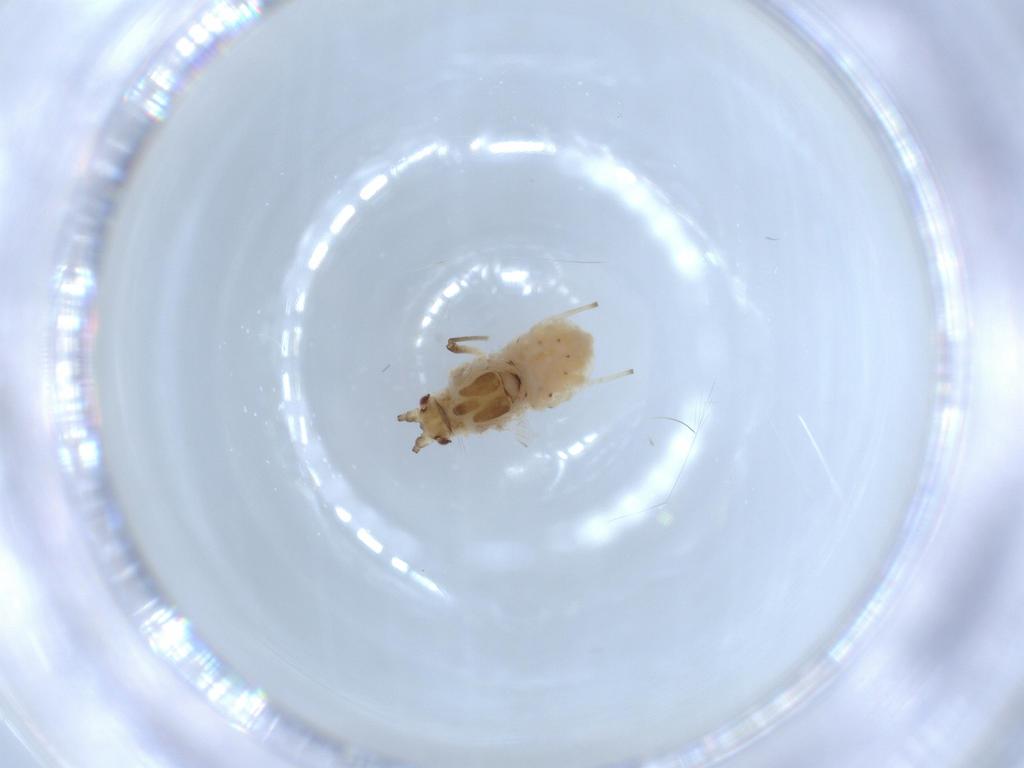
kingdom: Animalia
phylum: Arthropoda
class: Insecta
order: Hemiptera
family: Aphididae
